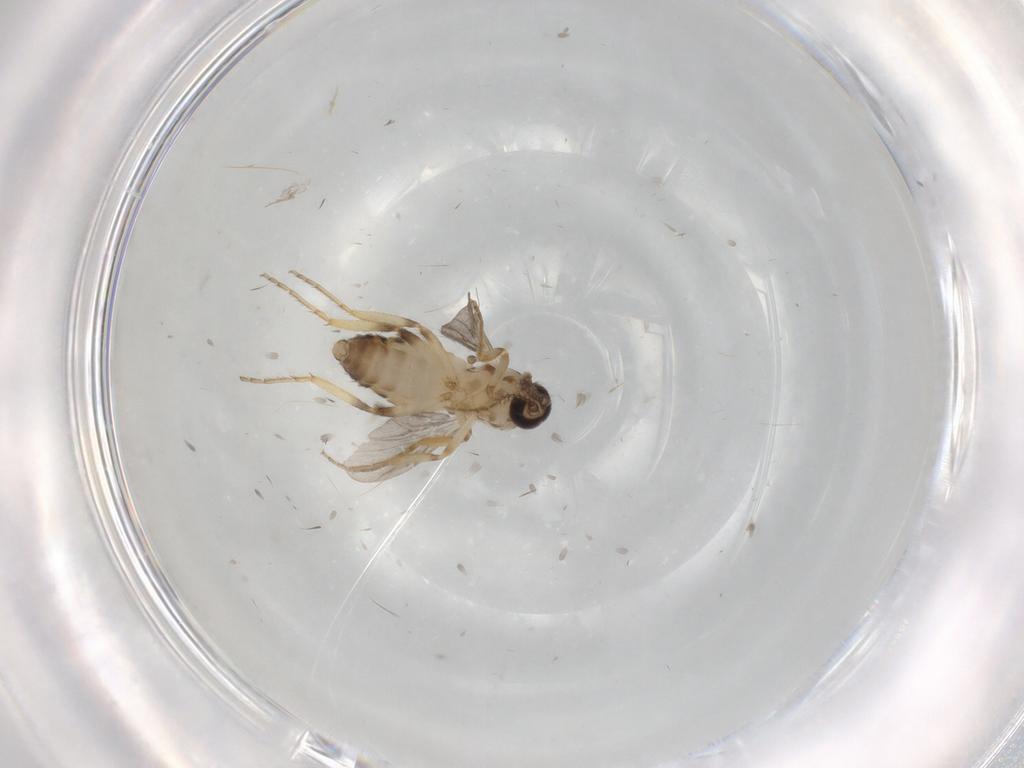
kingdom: Animalia
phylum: Arthropoda
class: Insecta
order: Diptera
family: Ceratopogonidae
